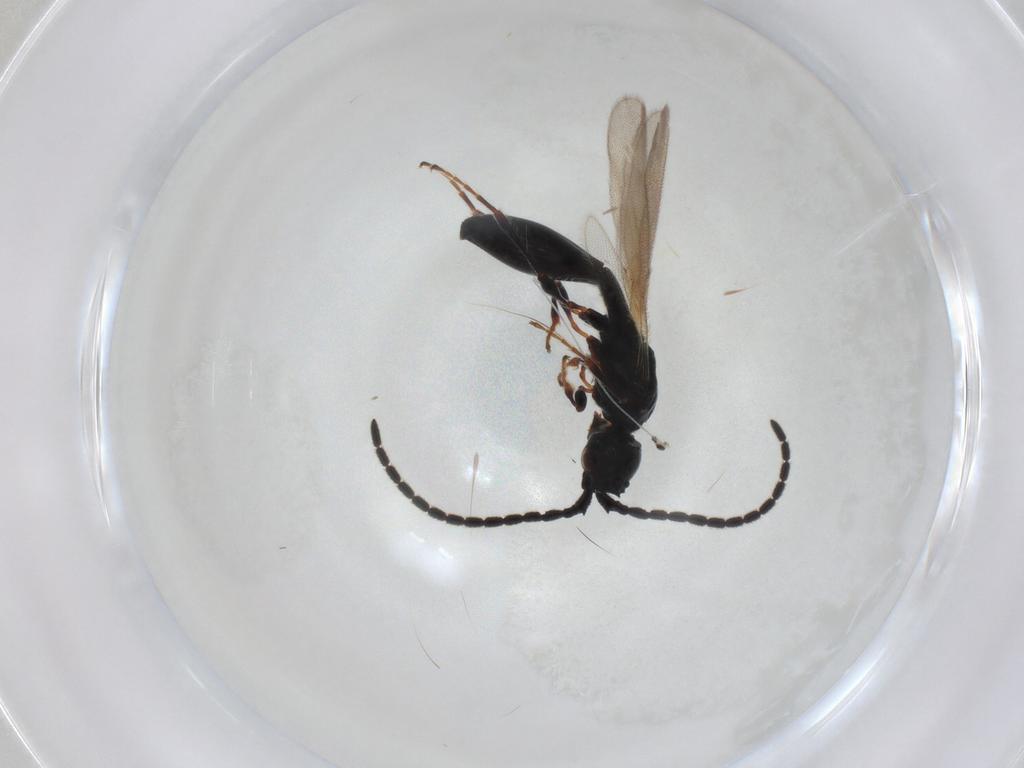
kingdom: Animalia
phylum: Arthropoda
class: Insecta
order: Hymenoptera
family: Diapriidae
